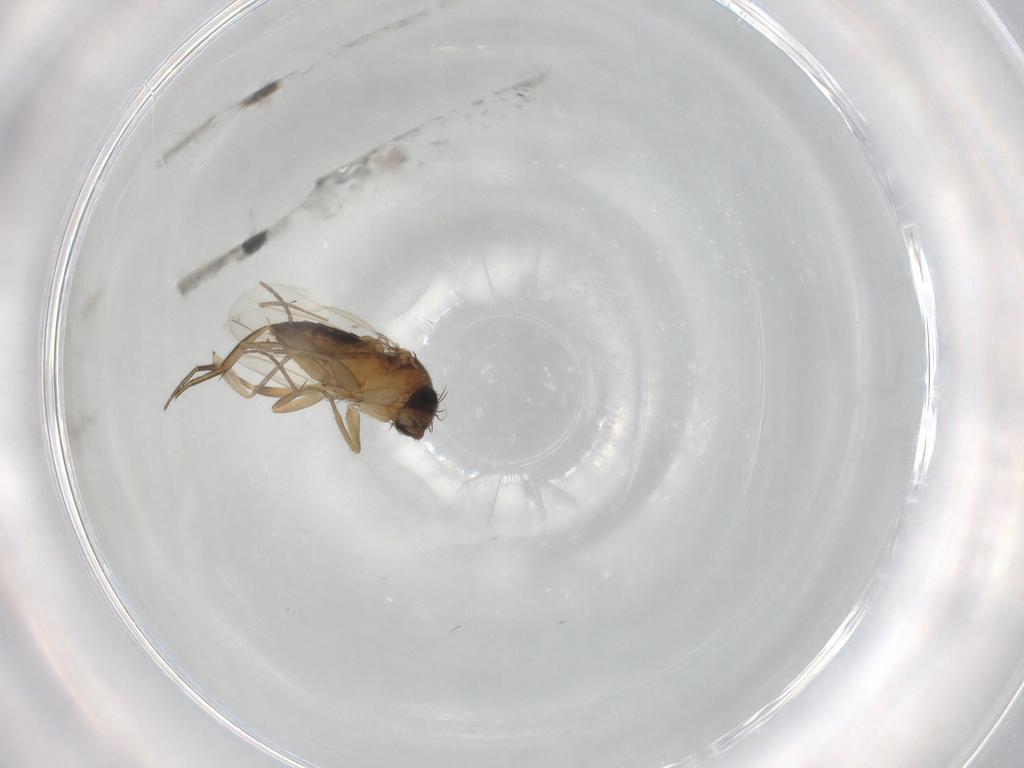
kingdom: Animalia
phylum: Arthropoda
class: Insecta
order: Diptera
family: Phoridae
